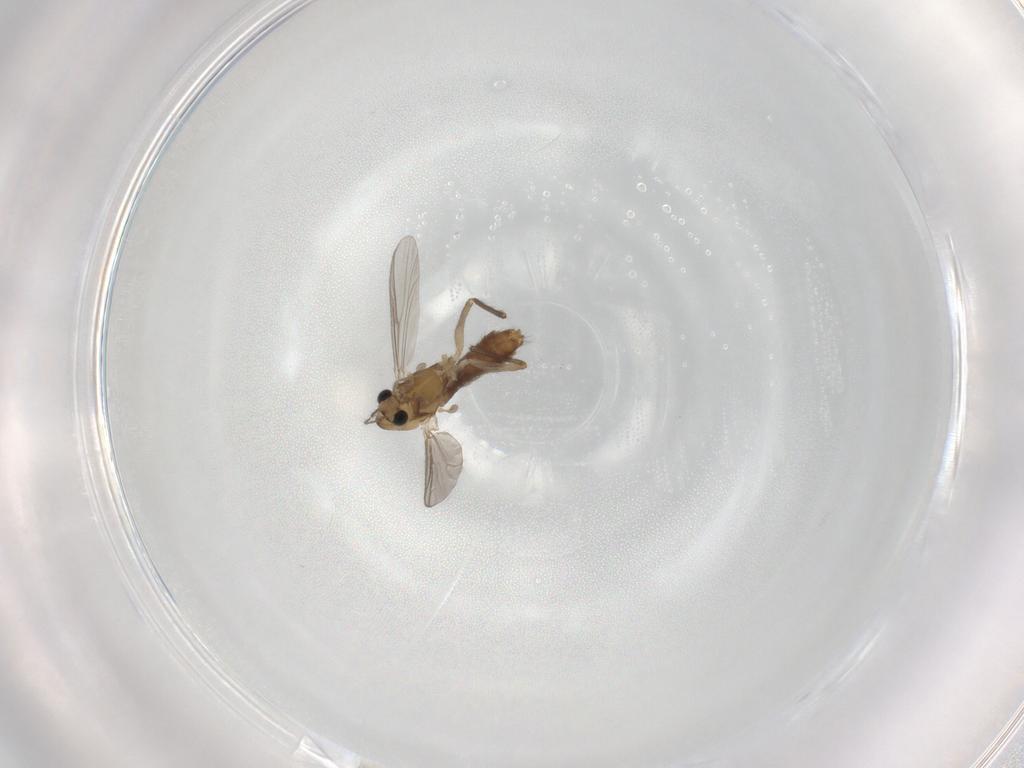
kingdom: Animalia
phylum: Arthropoda
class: Insecta
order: Diptera
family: Chironomidae
